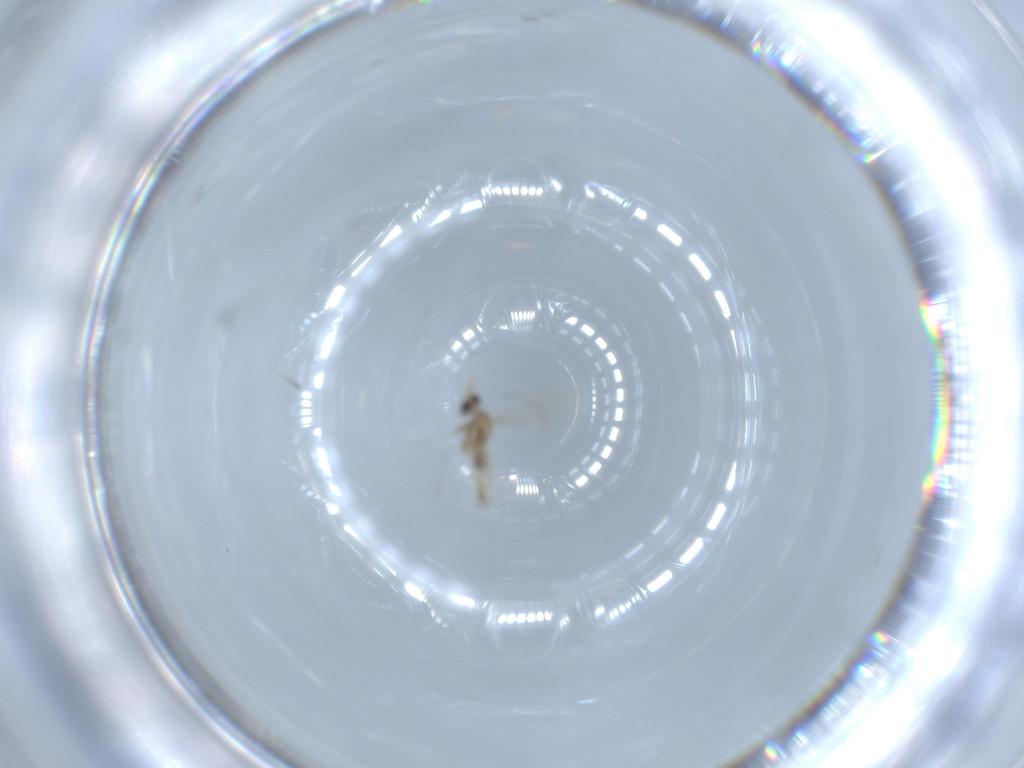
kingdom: Animalia
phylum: Arthropoda
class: Insecta
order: Diptera
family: Cecidomyiidae
